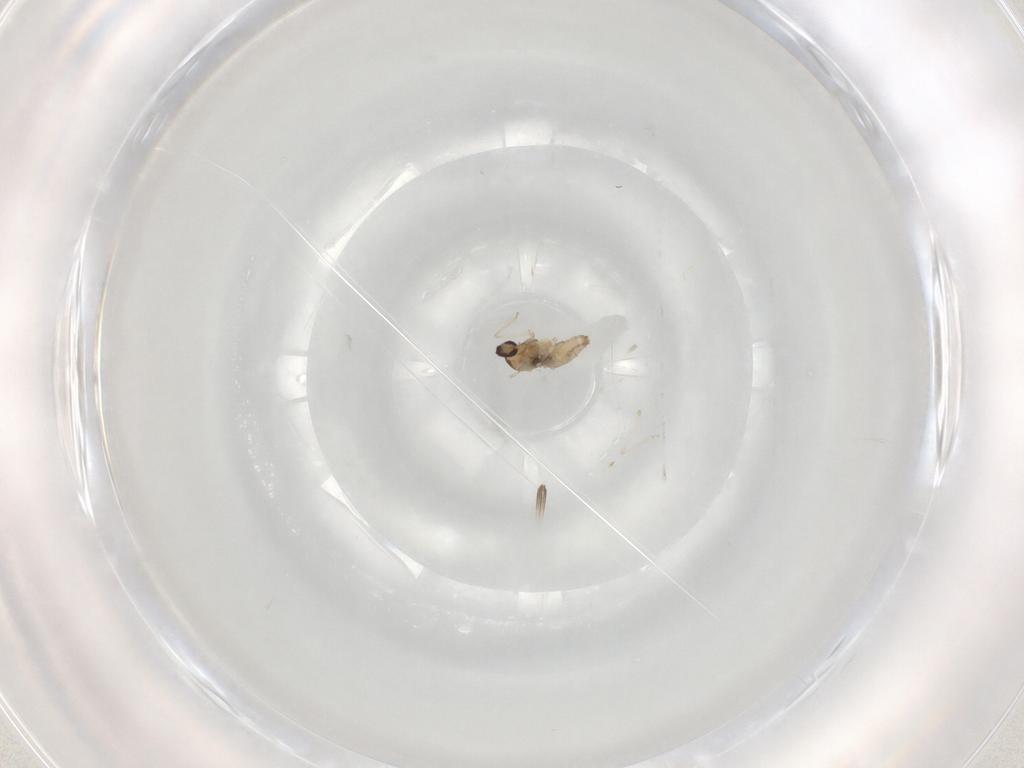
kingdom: Animalia
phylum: Arthropoda
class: Insecta
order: Diptera
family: Cecidomyiidae
